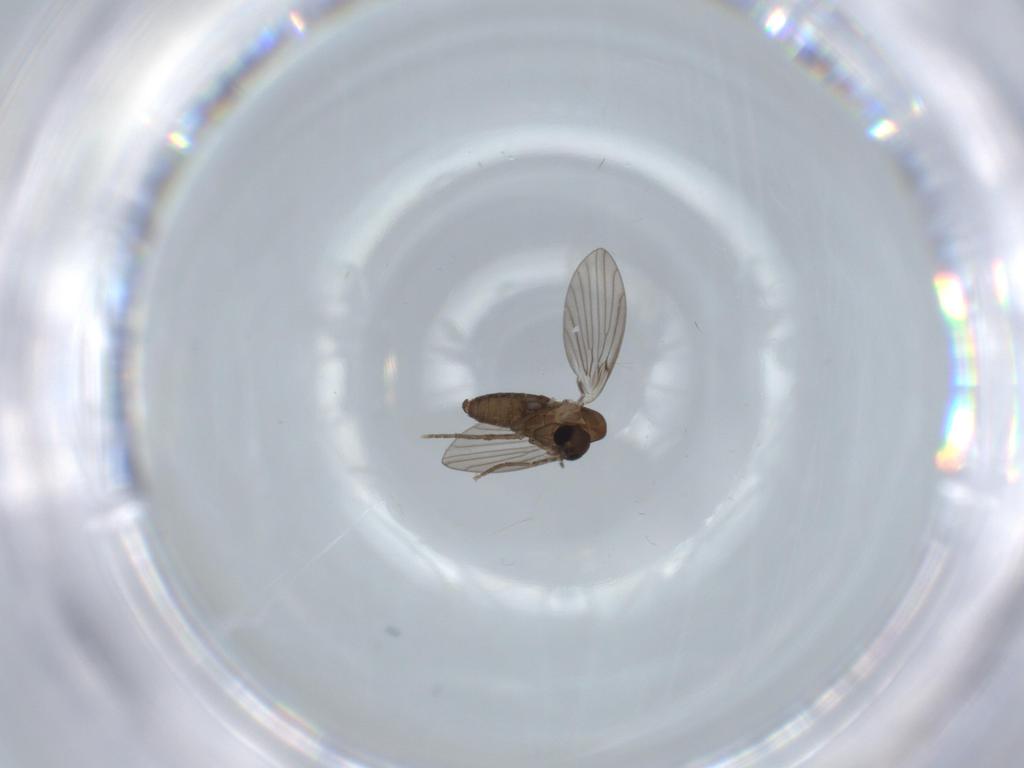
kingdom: Animalia
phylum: Arthropoda
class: Insecta
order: Diptera
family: Psychodidae
